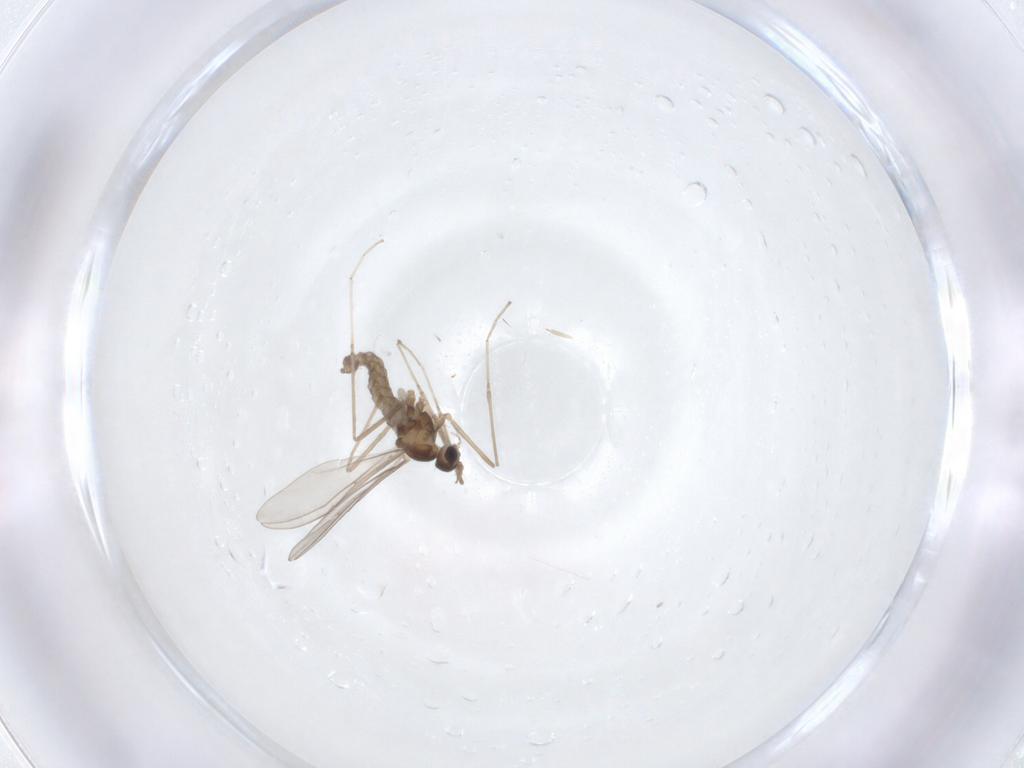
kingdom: Animalia
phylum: Arthropoda
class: Insecta
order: Diptera
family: Cecidomyiidae
